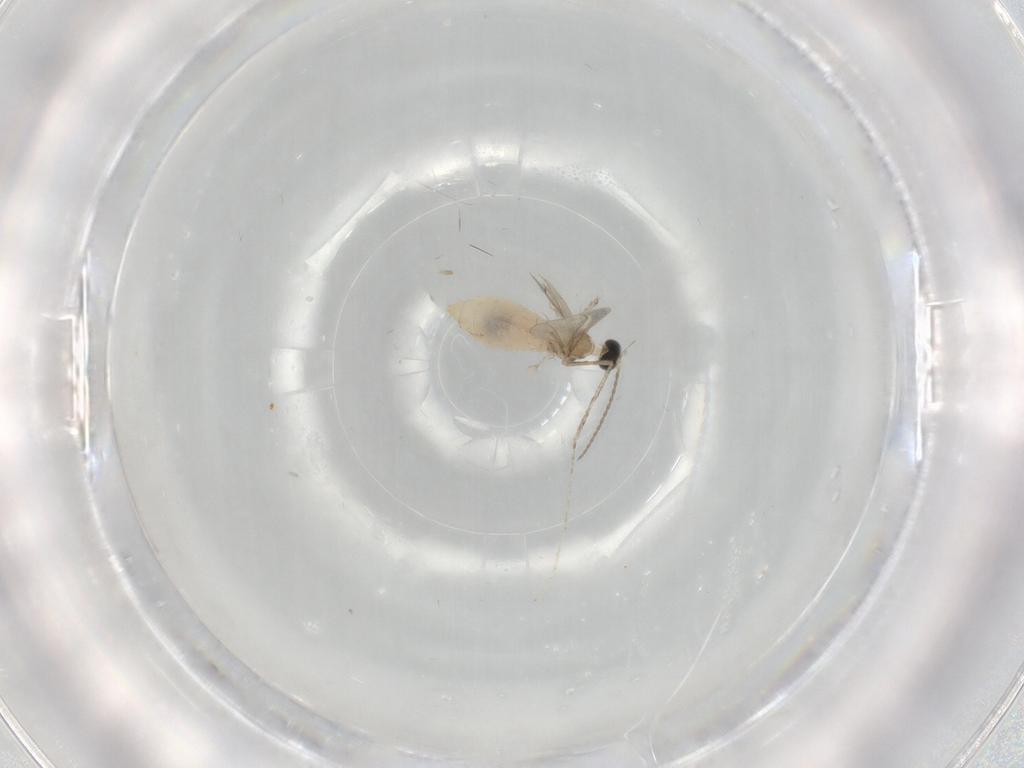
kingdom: Animalia
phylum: Arthropoda
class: Insecta
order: Diptera
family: Cecidomyiidae
